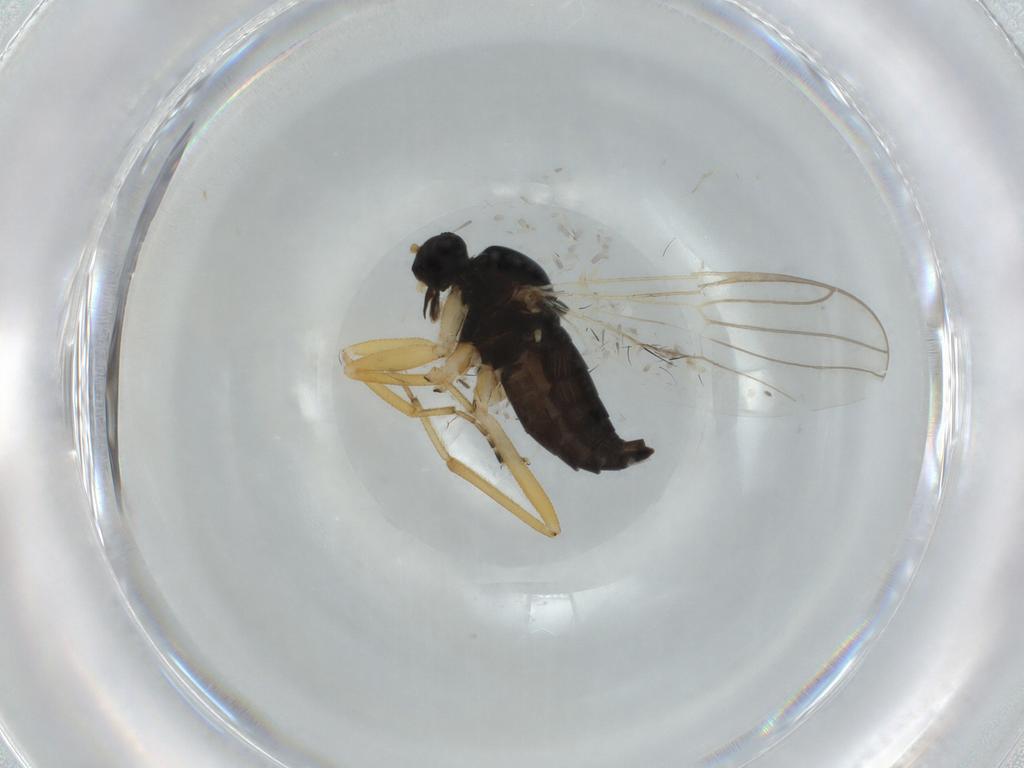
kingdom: Animalia
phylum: Arthropoda
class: Insecta
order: Diptera
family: Hybotidae
